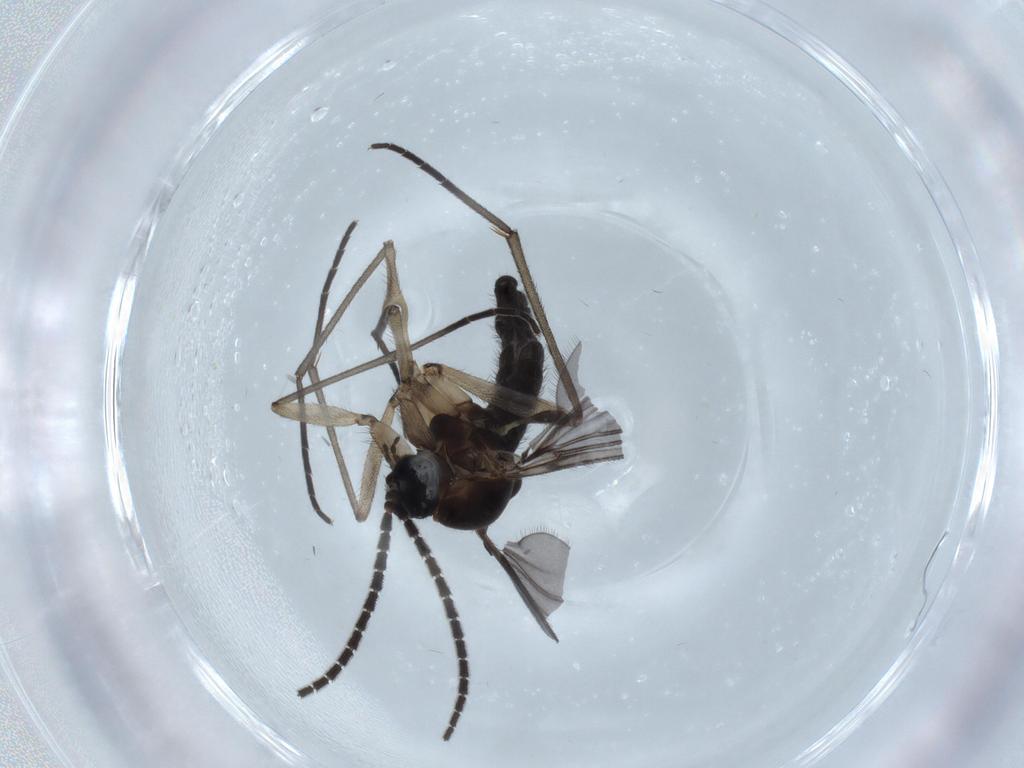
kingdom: Animalia
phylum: Arthropoda
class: Insecta
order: Diptera
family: Sciaridae
